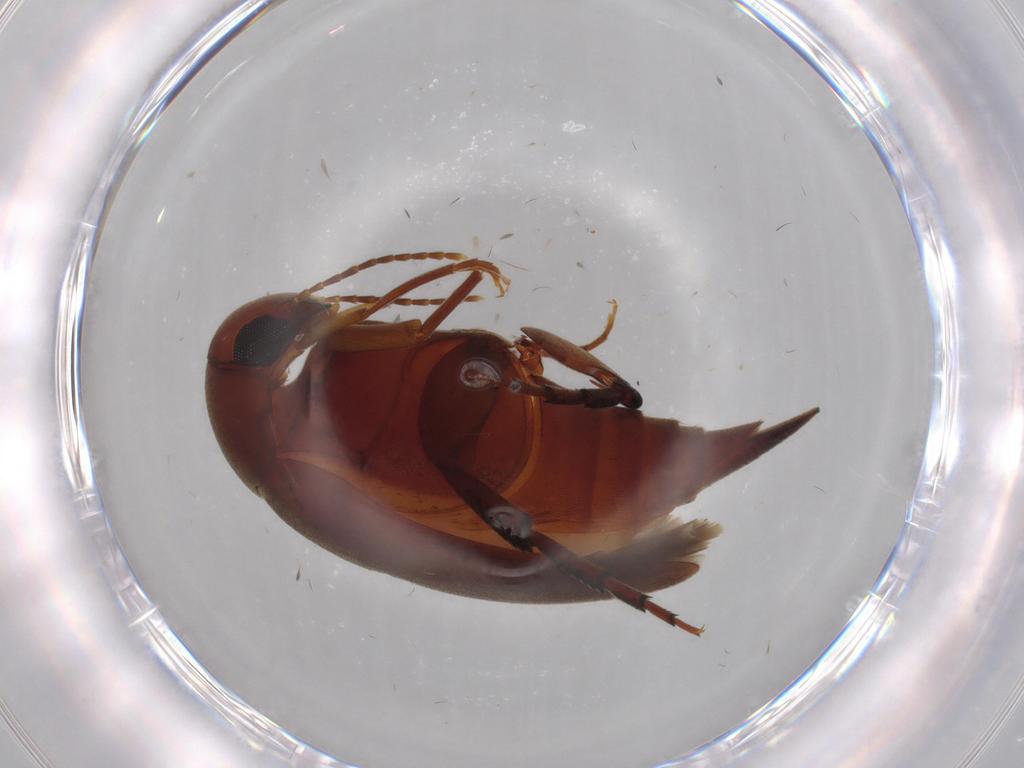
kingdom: Animalia
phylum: Arthropoda
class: Insecta
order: Coleoptera
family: Mordellidae
